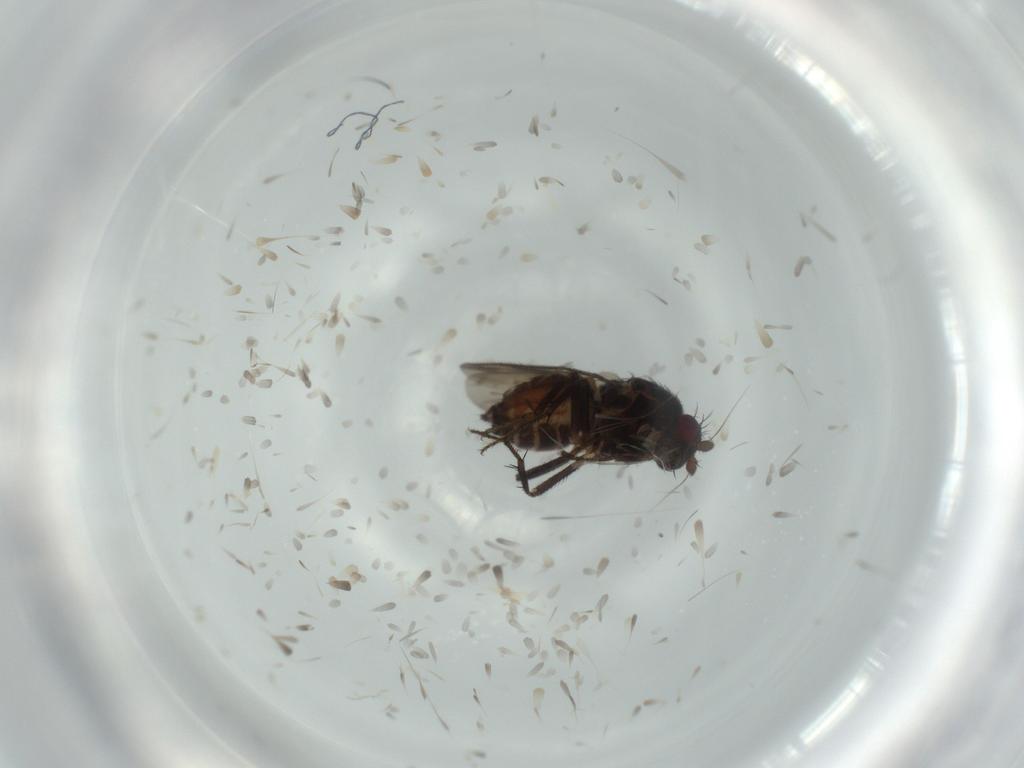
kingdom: Animalia
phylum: Arthropoda
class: Insecta
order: Diptera
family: Sphaeroceridae
